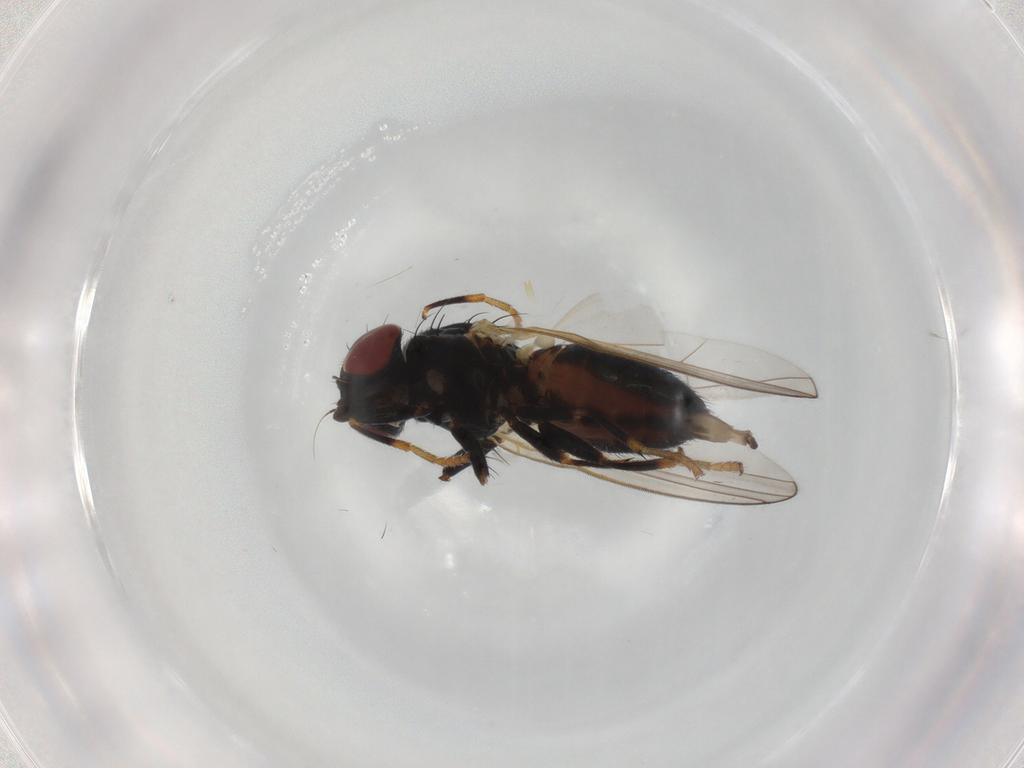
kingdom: Animalia
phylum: Arthropoda
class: Insecta
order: Diptera
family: Chamaemyiidae
